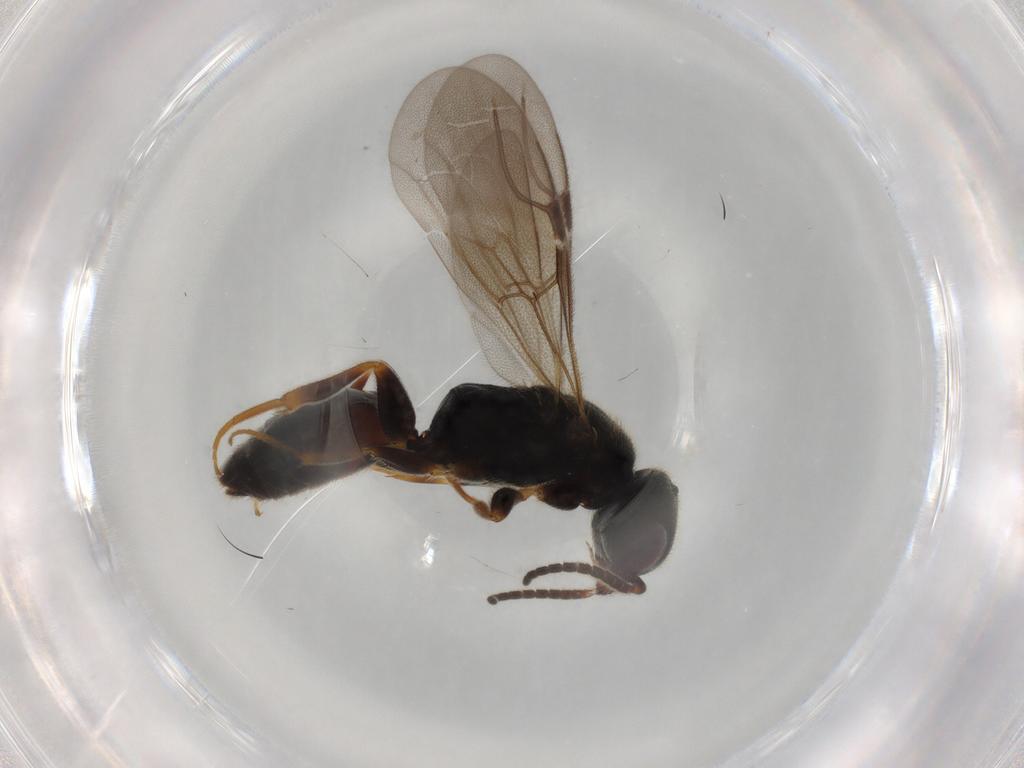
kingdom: Animalia
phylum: Arthropoda
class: Insecta
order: Hymenoptera
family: Bethylidae
